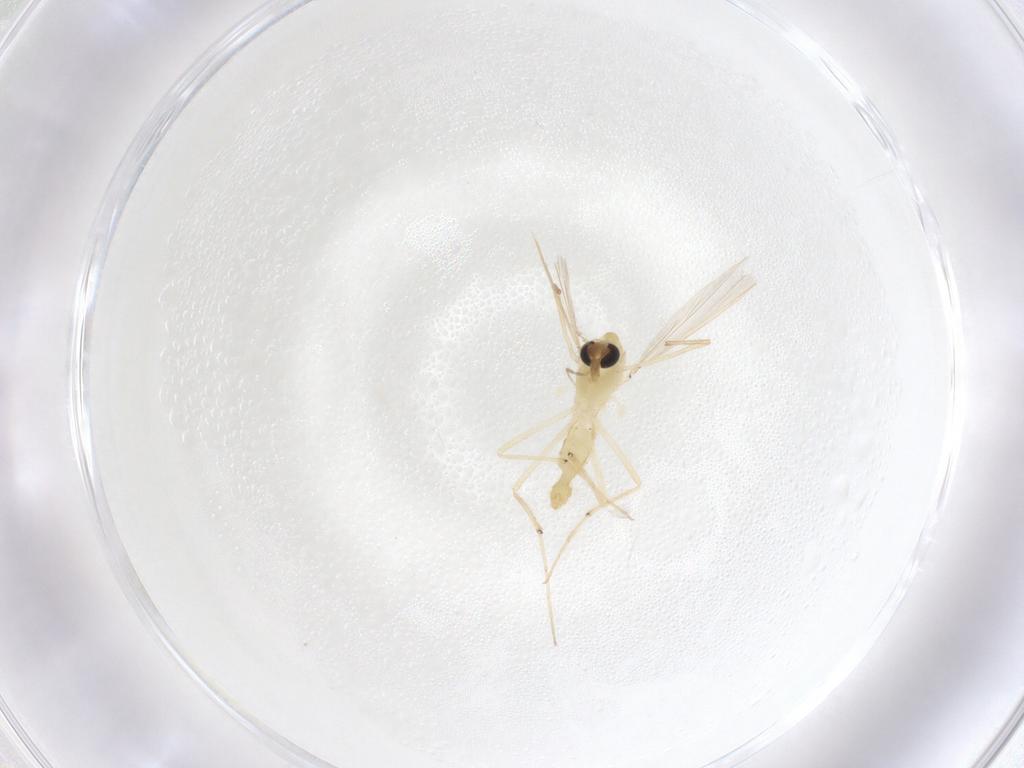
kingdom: Animalia
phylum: Arthropoda
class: Insecta
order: Diptera
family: Chironomidae
